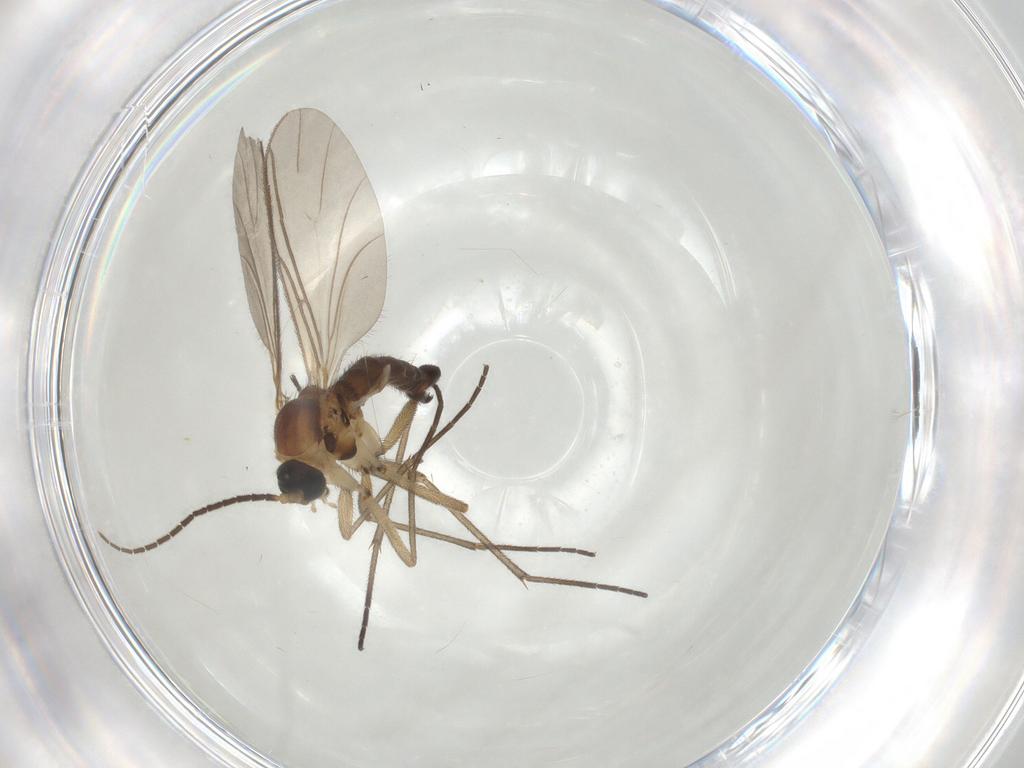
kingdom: Animalia
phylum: Arthropoda
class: Insecta
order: Diptera
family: Sciaridae
